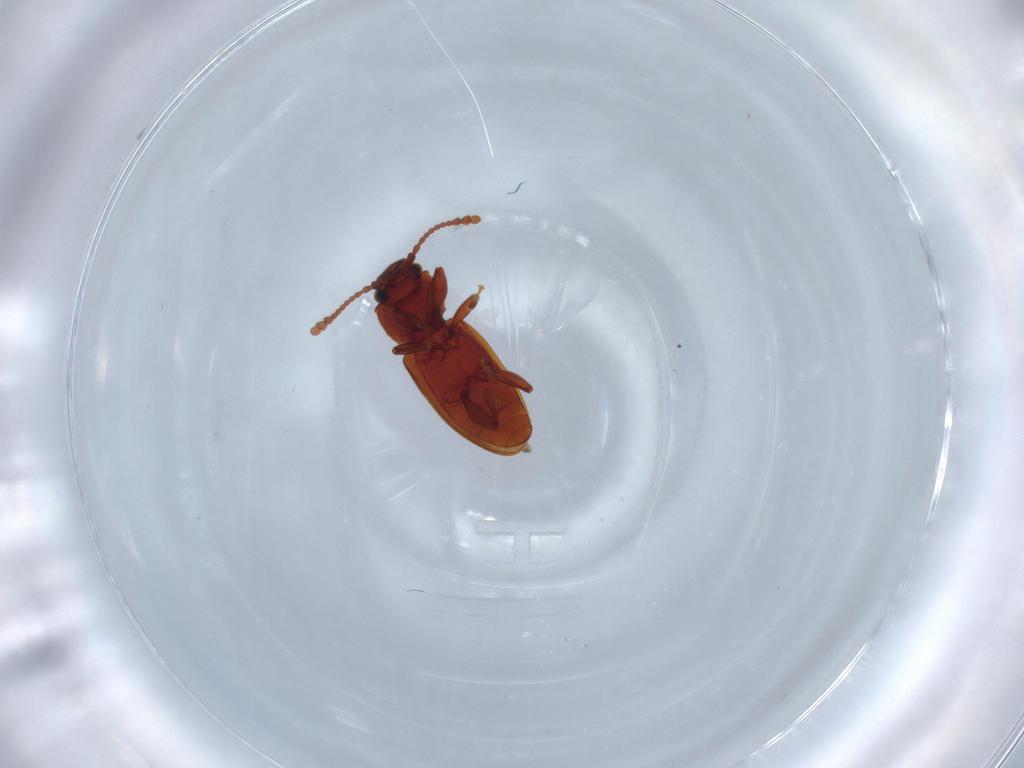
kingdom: Animalia
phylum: Arthropoda
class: Insecta
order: Coleoptera
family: Silvanidae
